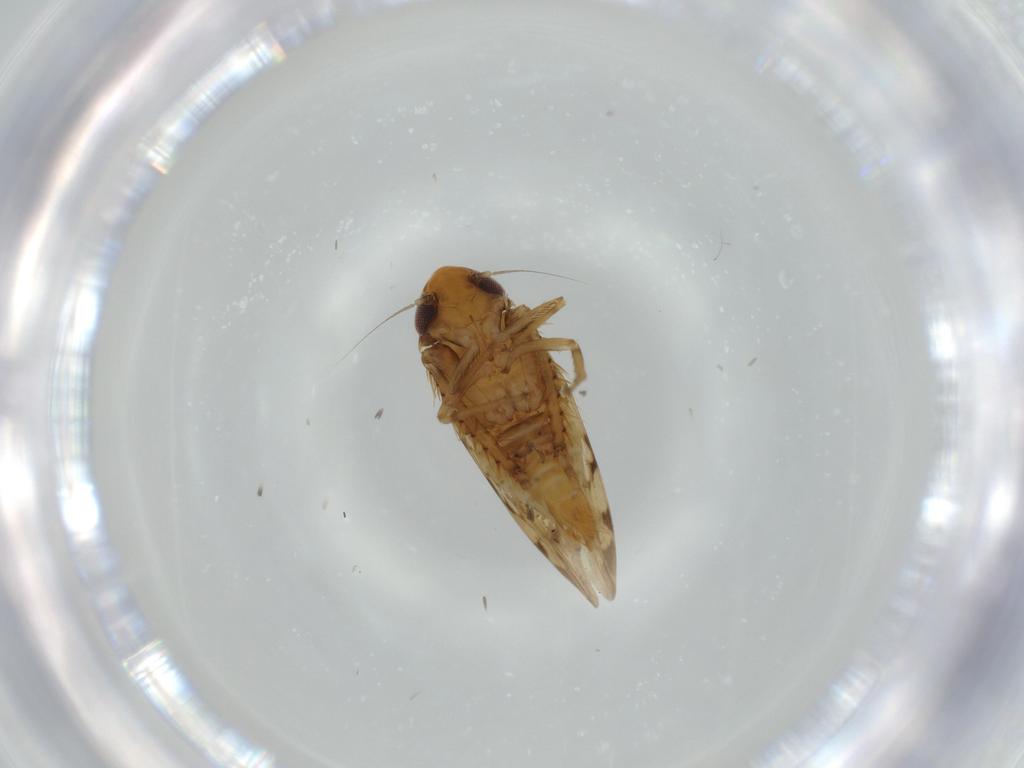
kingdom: Animalia
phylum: Arthropoda
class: Insecta
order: Hemiptera
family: Cicadellidae
